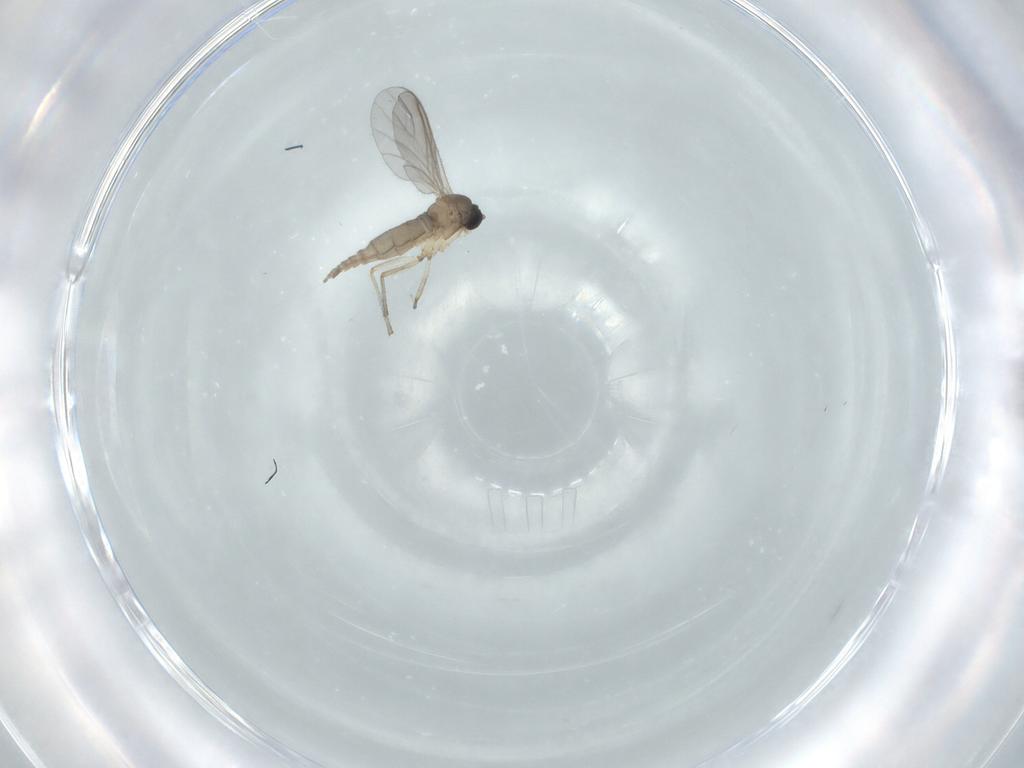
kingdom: Animalia
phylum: Arthropoda
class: Insecta
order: Diptera
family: Sciaridae
